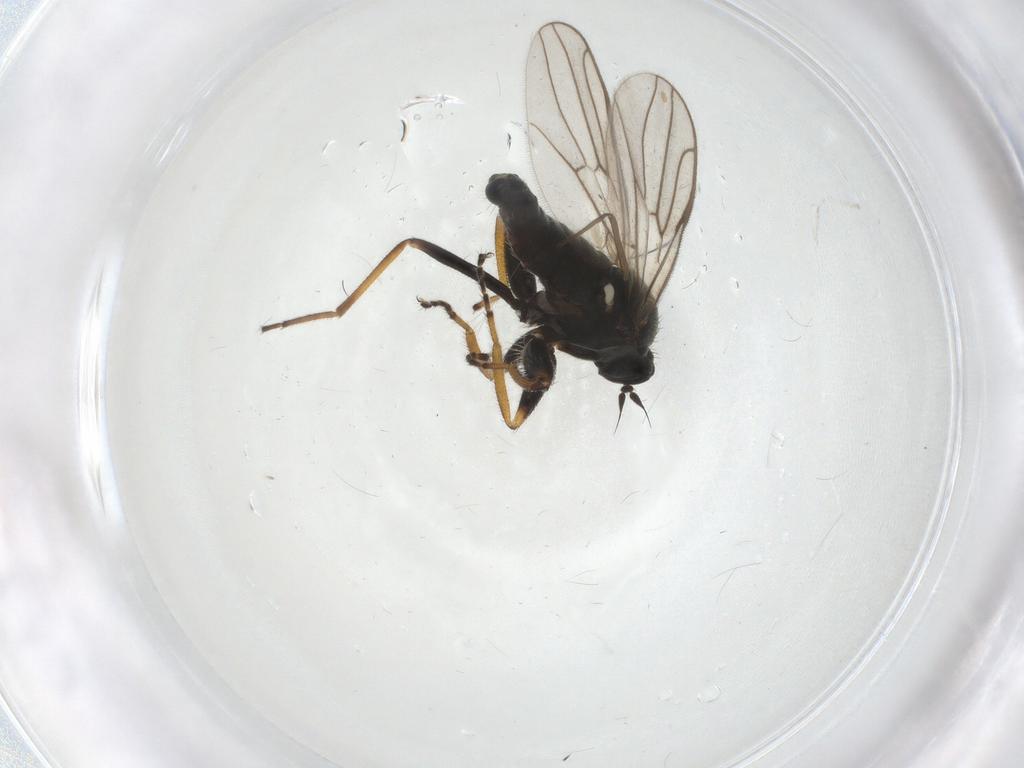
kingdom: Animalia
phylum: Arthropoda
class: Insecta
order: Diptera
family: Hybotidae
